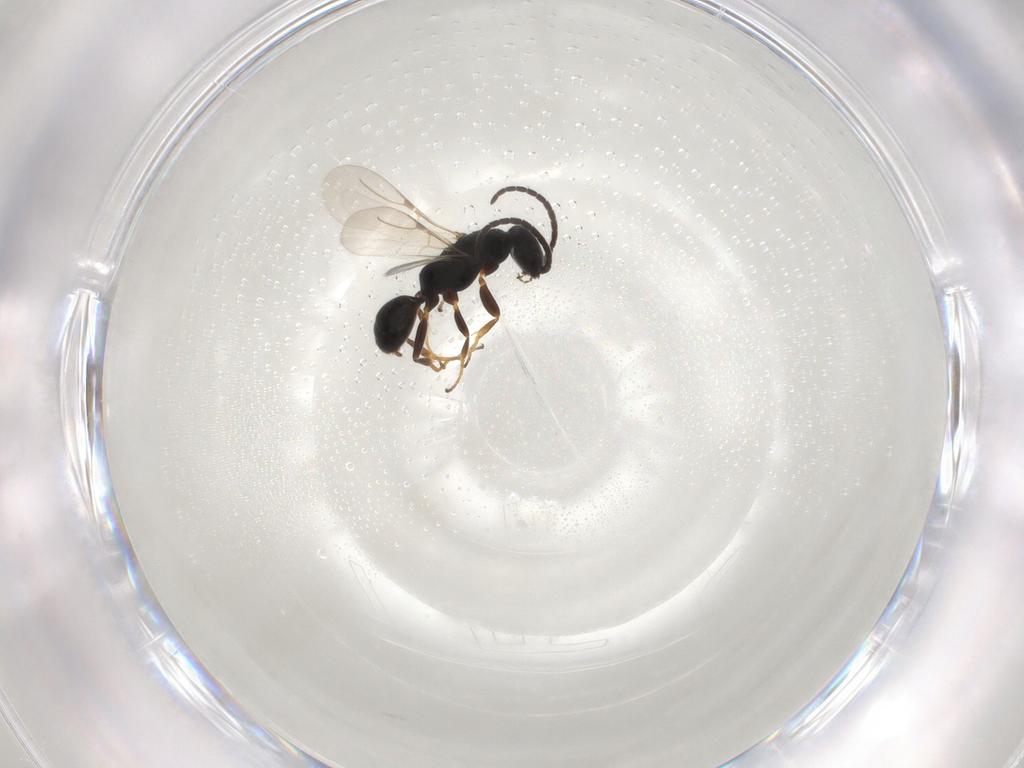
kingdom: Animalia
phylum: Arthropoda
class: Insecta
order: Hymenoptera
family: Bethylidae
